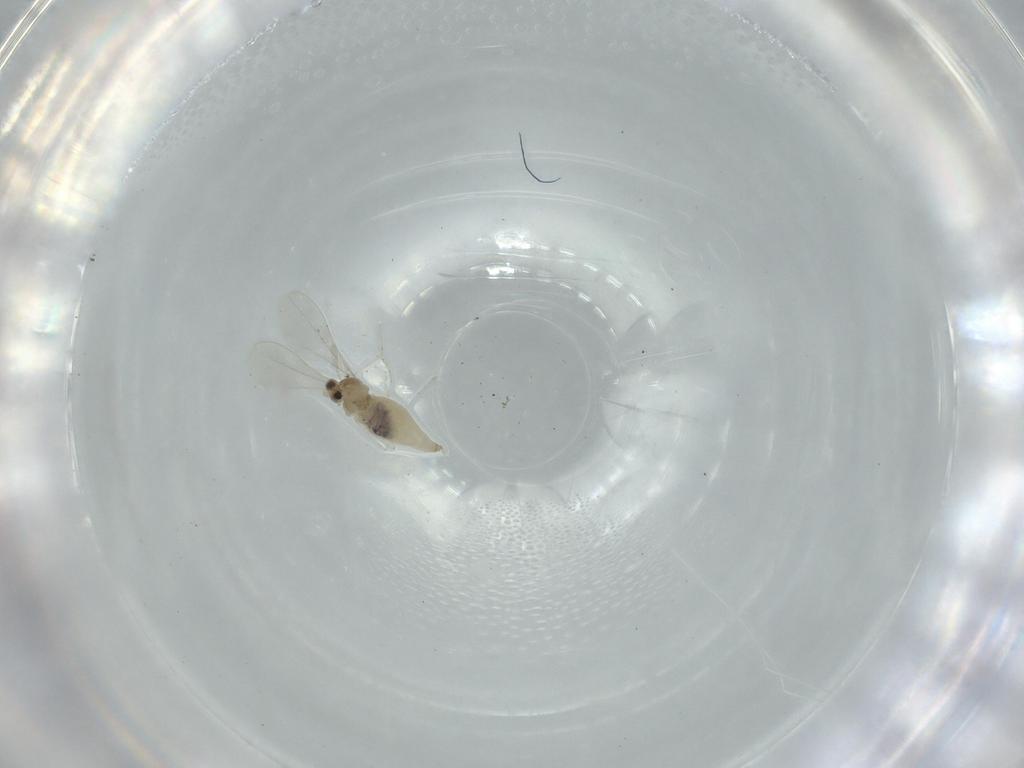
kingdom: Animalia
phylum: Arthropoda
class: Insecta
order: Diptera
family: Cecidomyiidae
